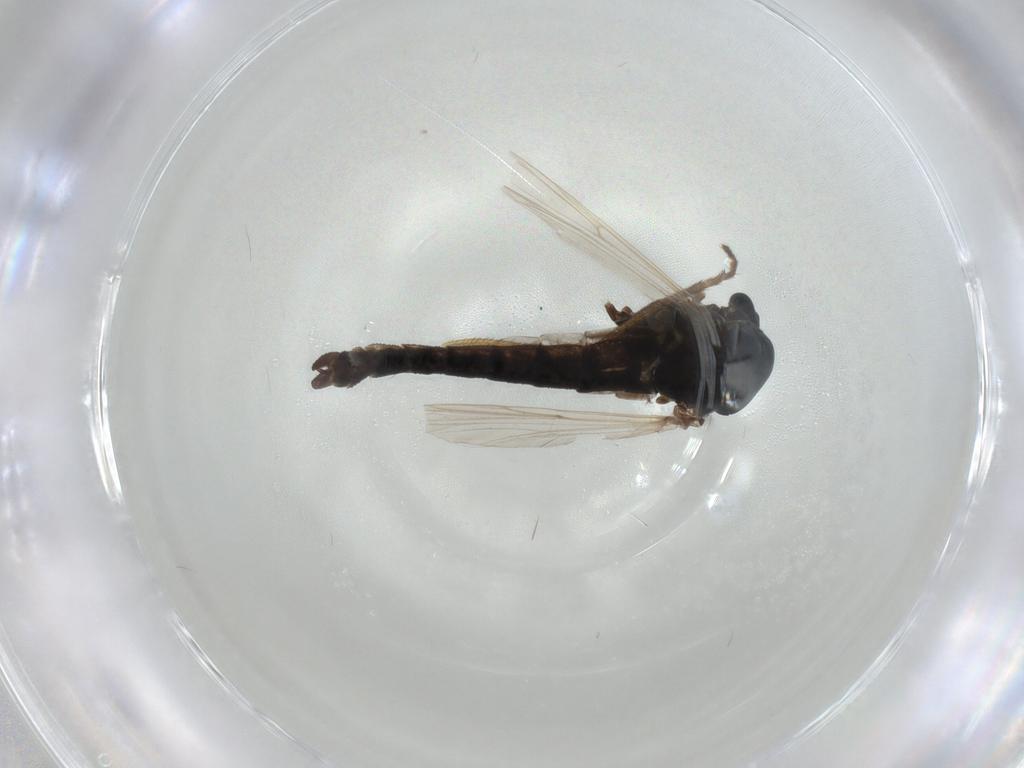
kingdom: Animalia
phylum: Arthropoda
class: Insecta
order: Diptera
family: Chironomidae
